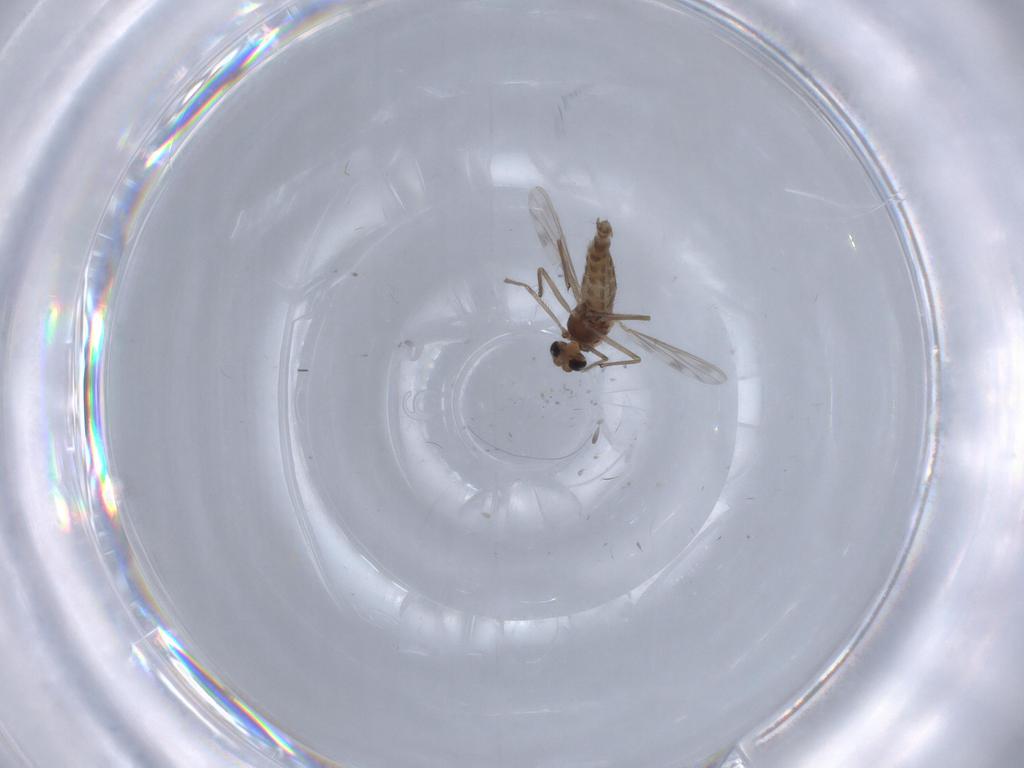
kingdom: Animalia
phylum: Arthropoda
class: Insecta
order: Diptera
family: Chironomidae
